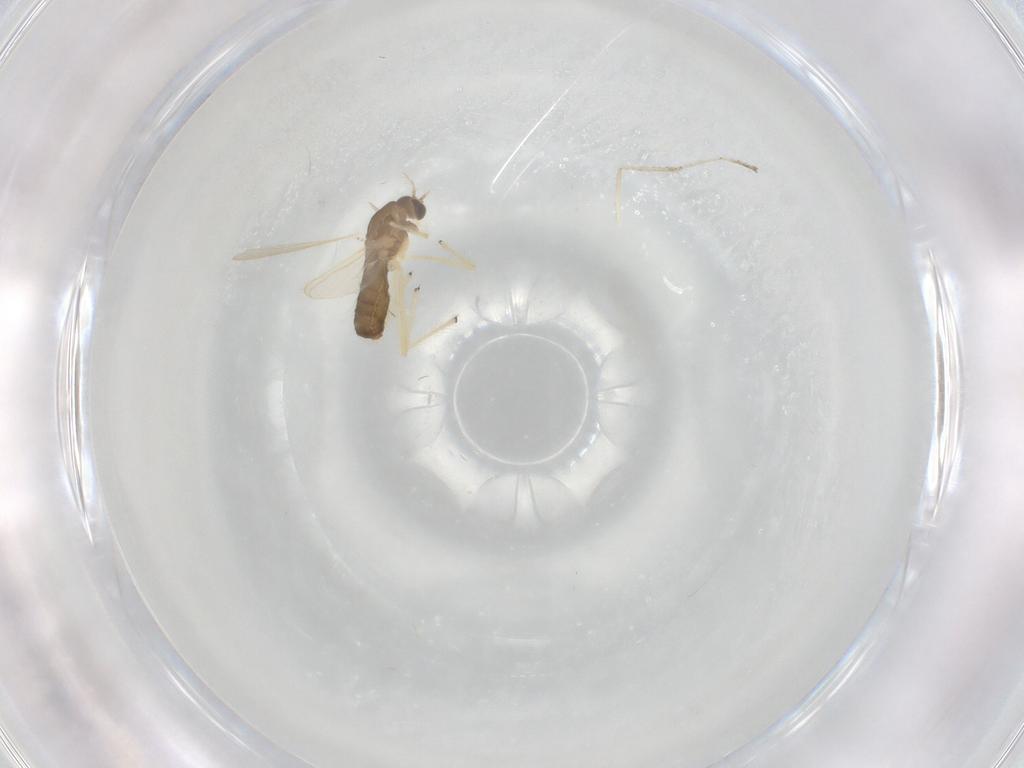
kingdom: Animalia
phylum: Arthropoda
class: Insecta
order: Diptera
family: Chironomidae
